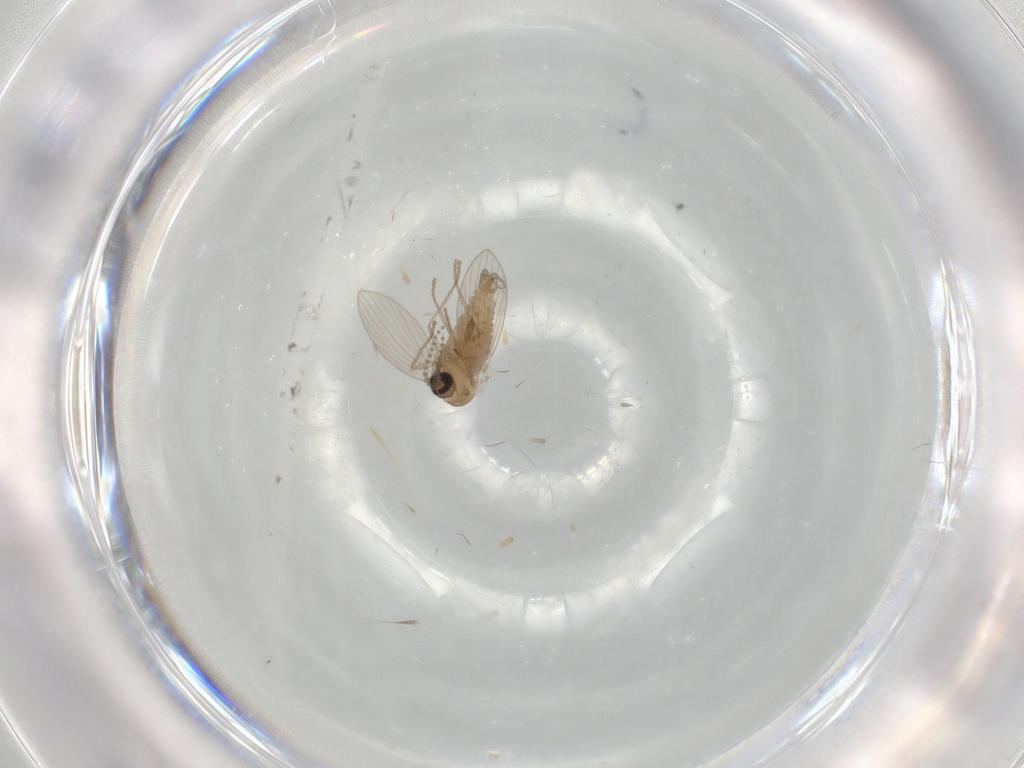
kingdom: Animalia
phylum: Arthropoda
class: Insecta
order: Diptera
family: Psychodidae
